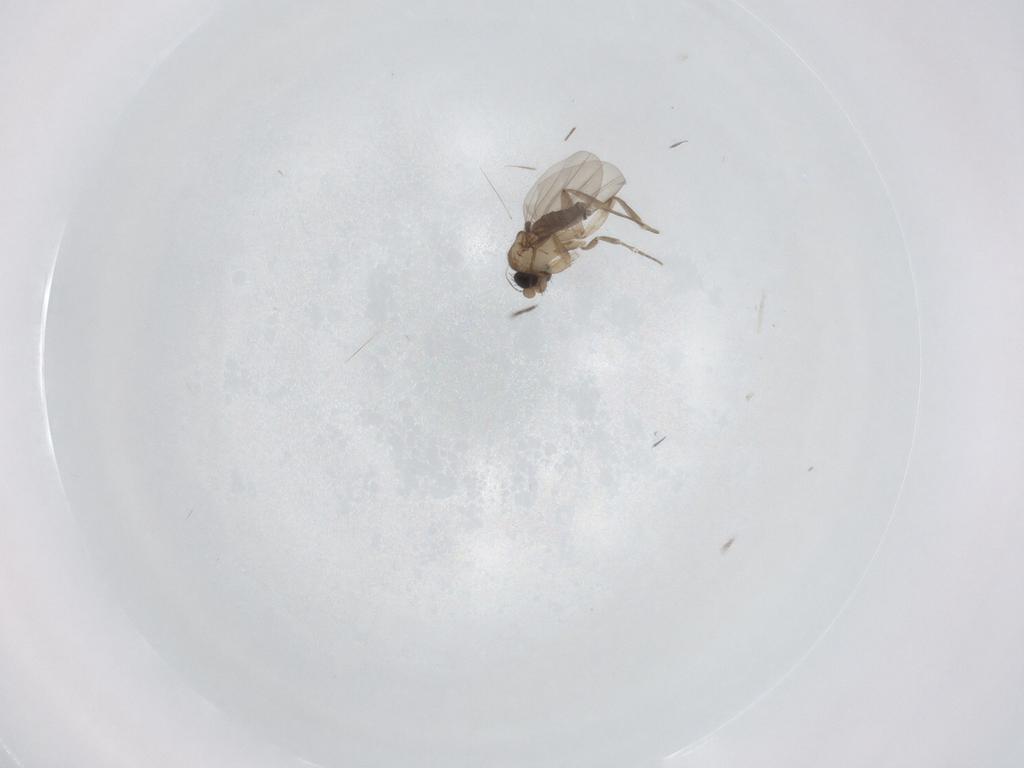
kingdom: Animalia
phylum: Arthropoda
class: Insecta
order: Diptera
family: Phoridae
